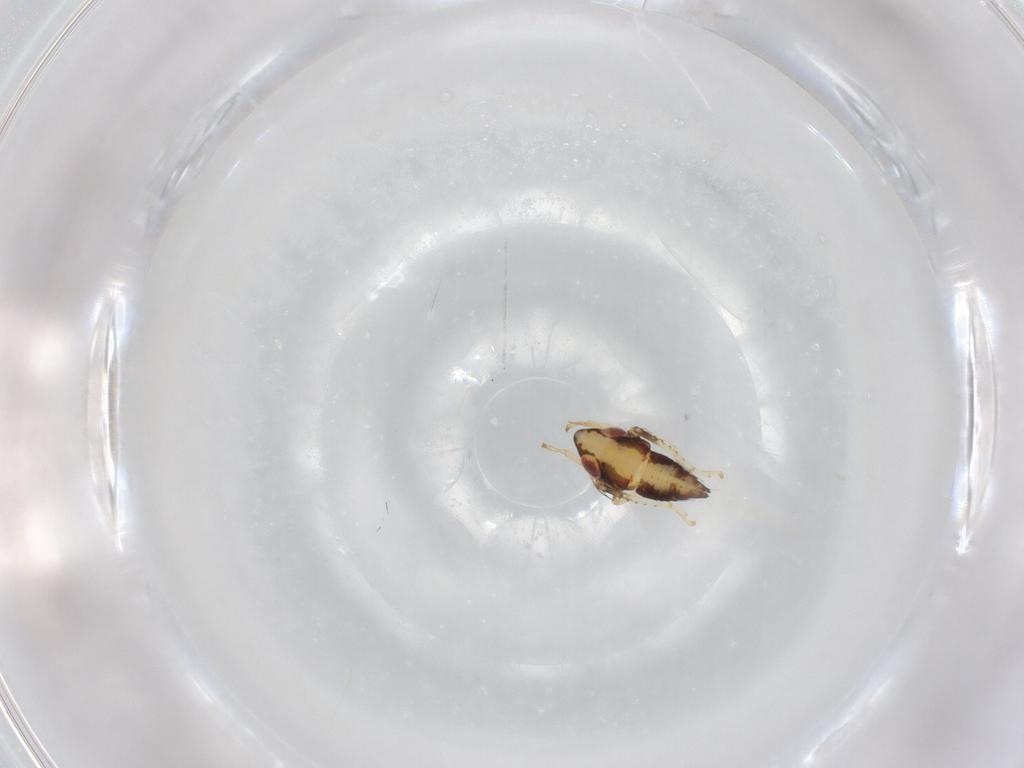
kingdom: Animalia
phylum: Arthropoda
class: Insecta
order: Hemiptera
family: Cicadellidae
